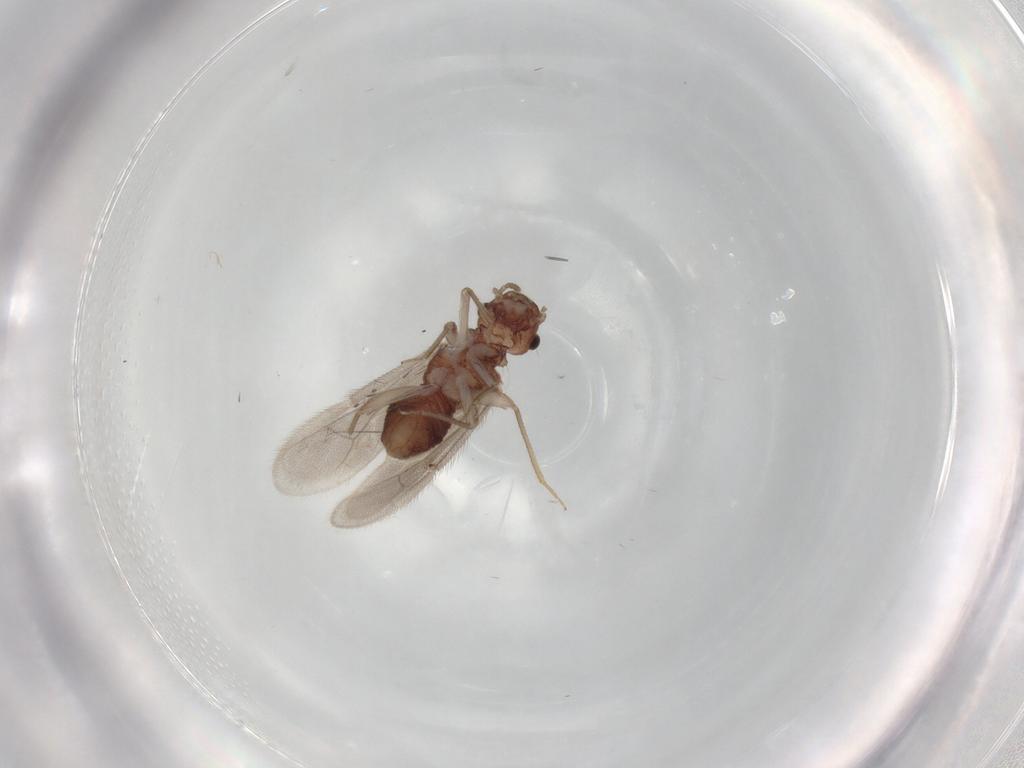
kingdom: Animalia
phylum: Arthropoda
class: Insecta
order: Psocodea
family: Archipsocidae
